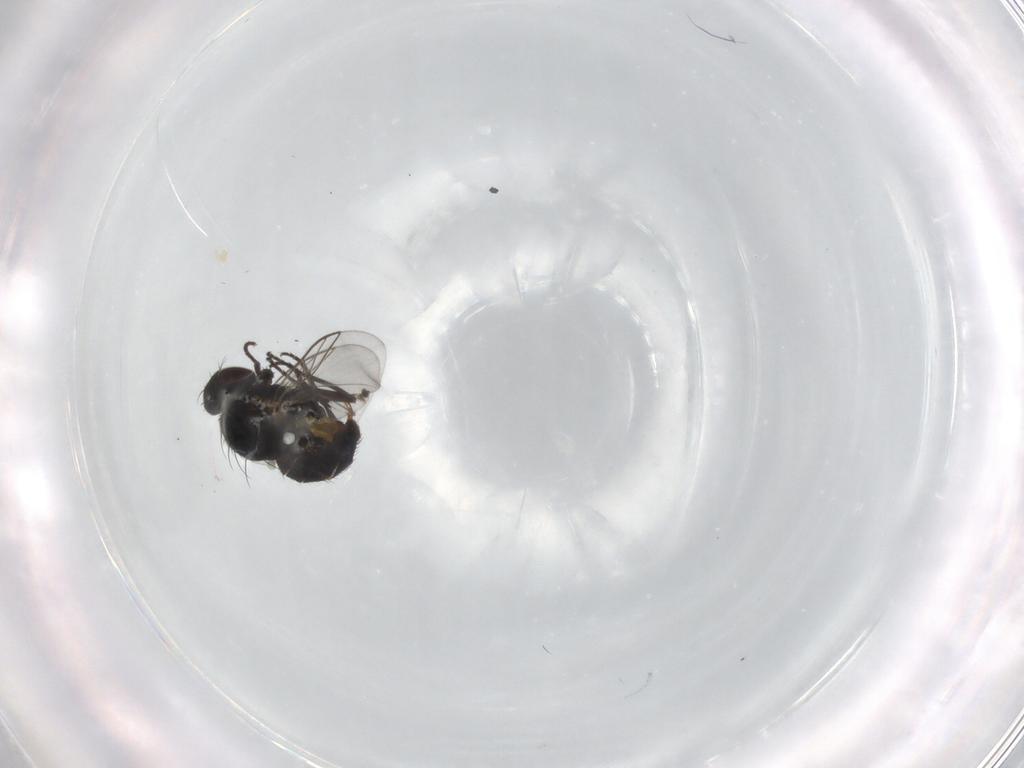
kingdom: Animalia
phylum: Arthropoda
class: Insecta
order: Diptera
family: Agromyzidae
